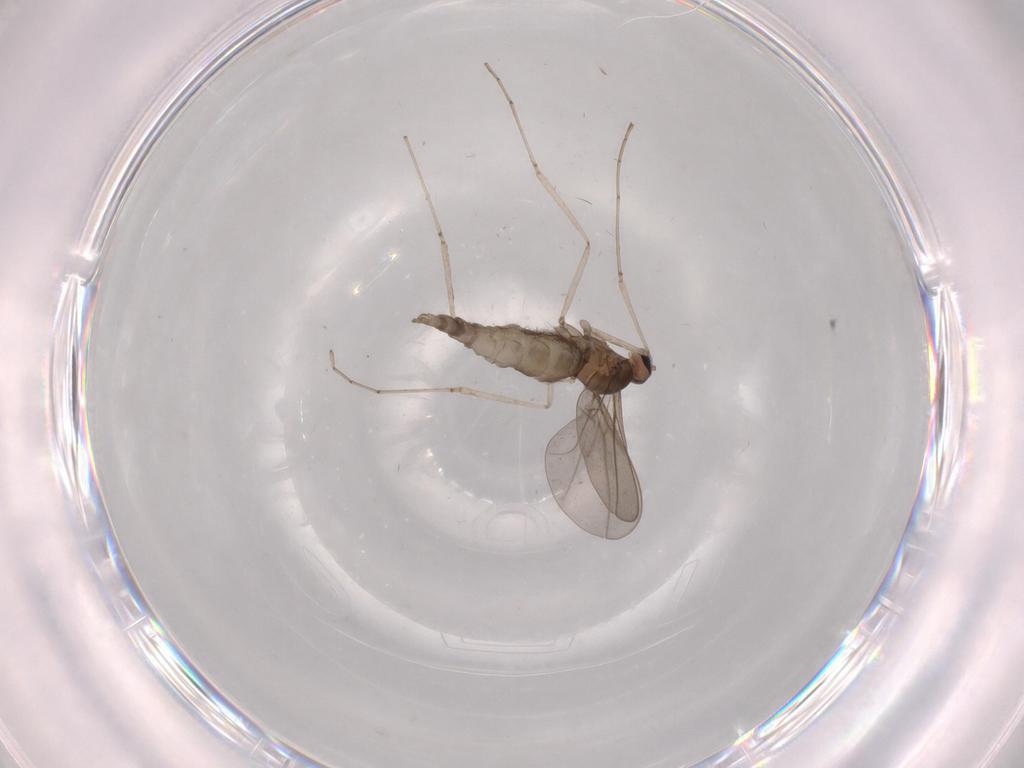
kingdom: Animalia
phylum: Arthropoda
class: Insecta
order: Diptera
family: Cecidomyiidae
